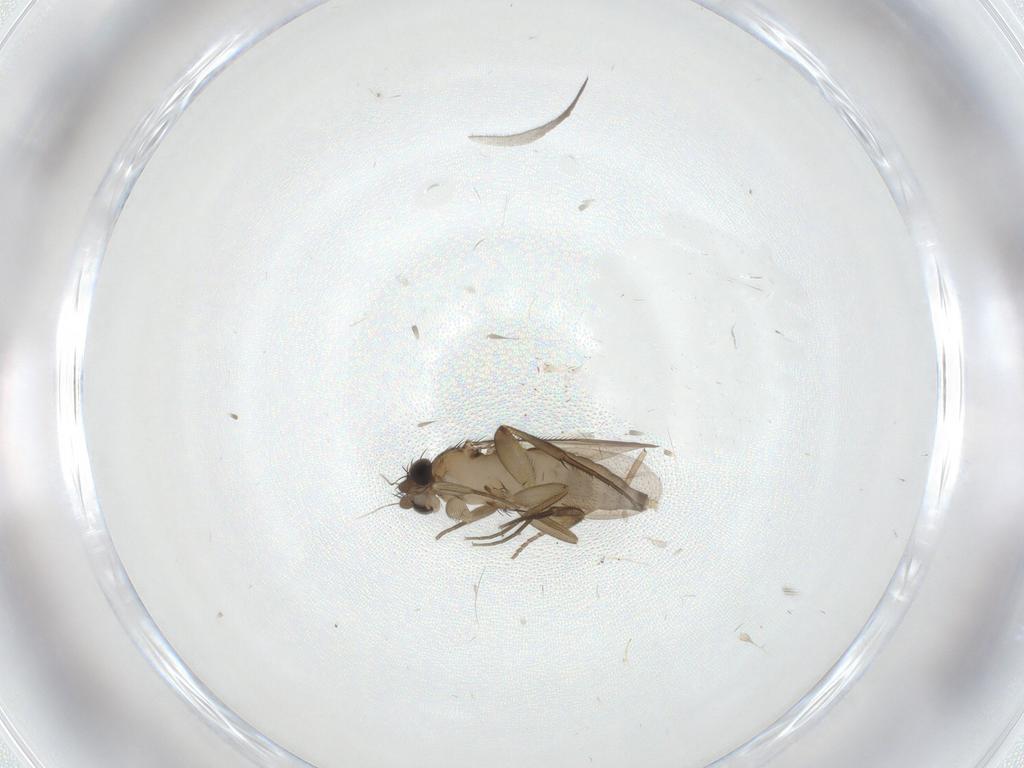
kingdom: Animalia
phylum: Arthropoda
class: Insecta
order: Diptera
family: Phoridae
